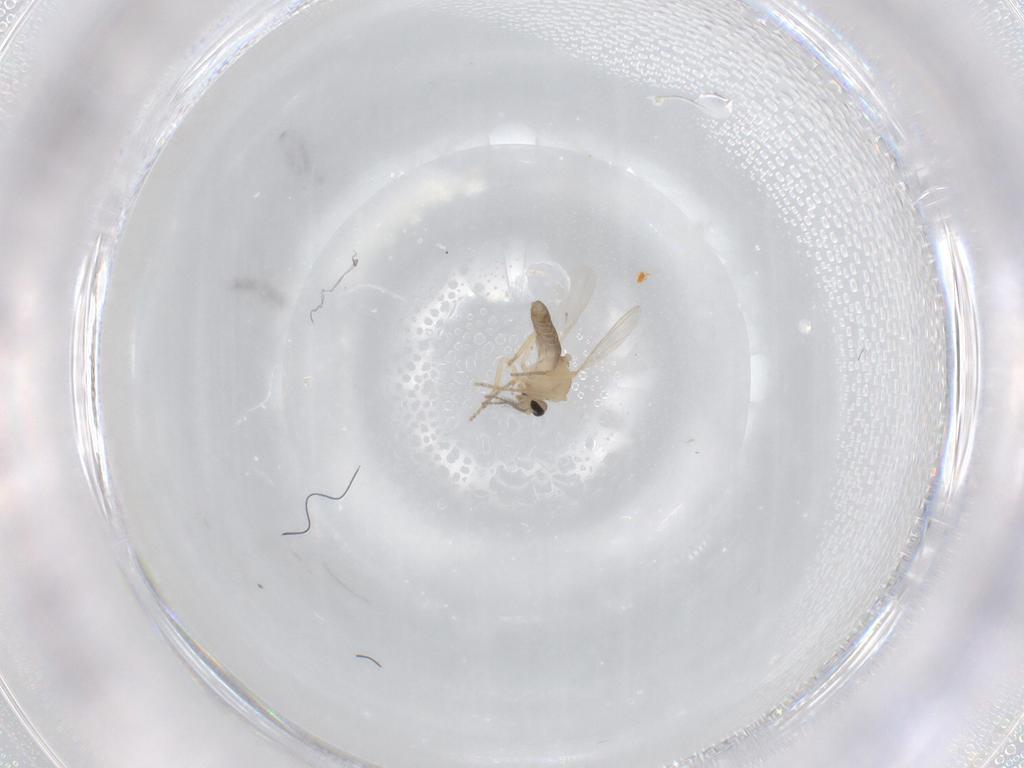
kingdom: Animalia
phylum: Arthropoda
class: Insecta
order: Diptera
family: Ceratopogonidae
